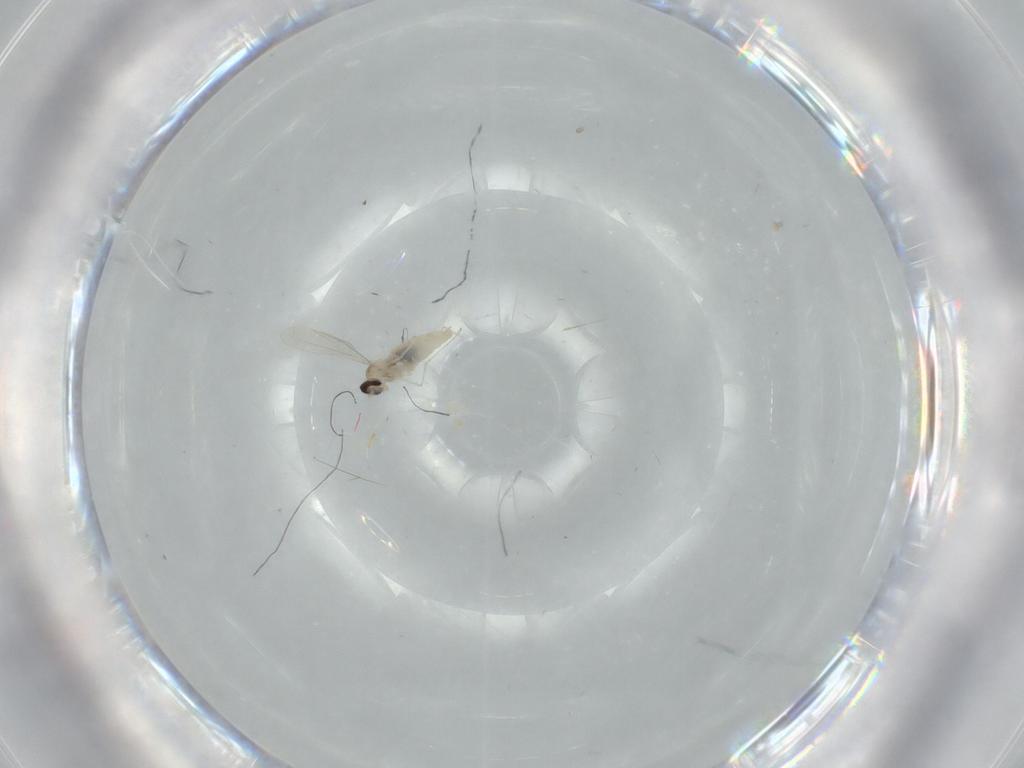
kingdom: Animalia
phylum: Arthropoda
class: Insecta
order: Diptera
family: Cecidomyiidae
